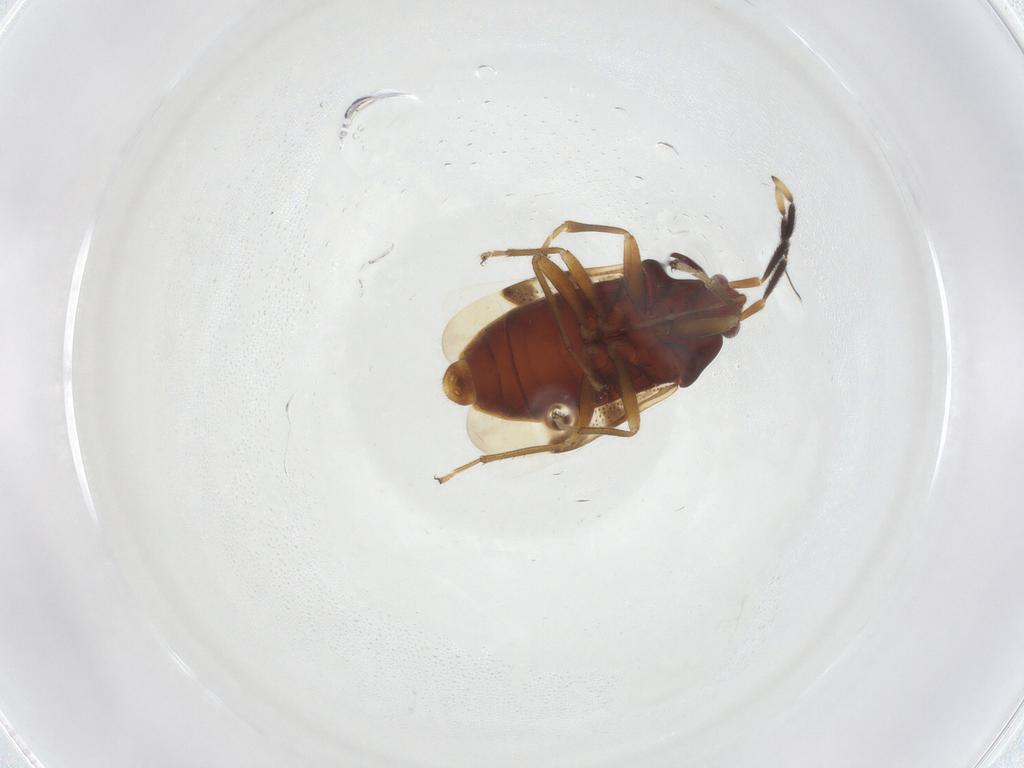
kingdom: Animalia
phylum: Arthropoda
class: Insecta
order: Hemiptera
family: Rhyparochromidae
